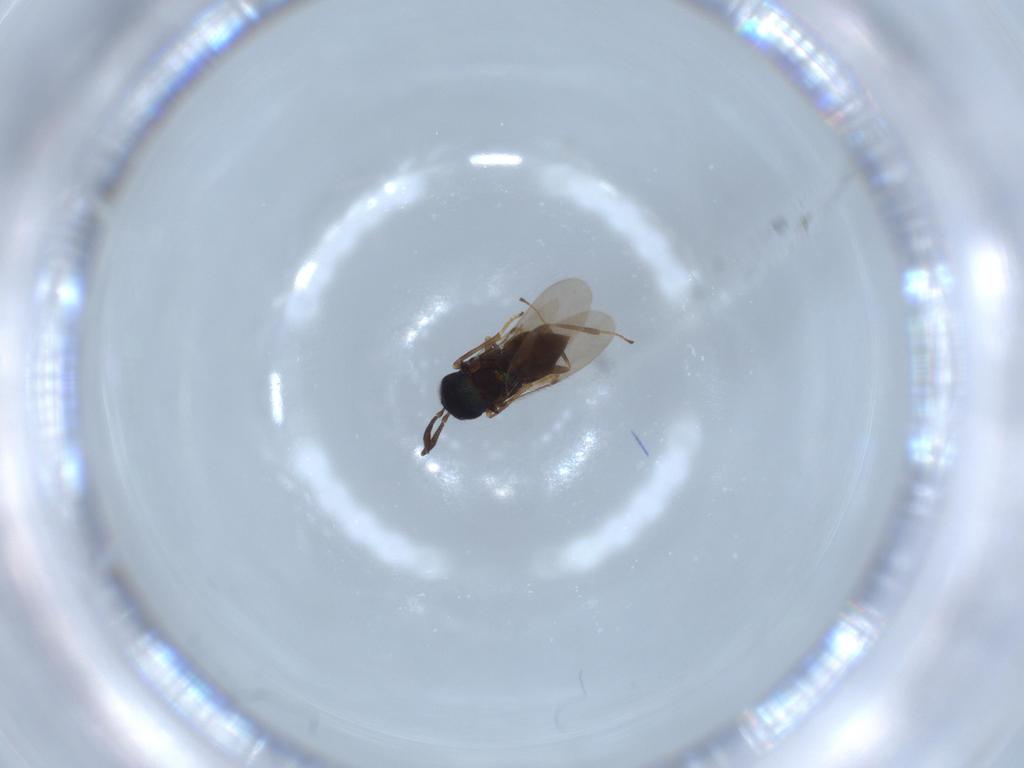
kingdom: Animalia
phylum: Arthropoda
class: Insecta
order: Hymenoptera
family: Encyrtidae
